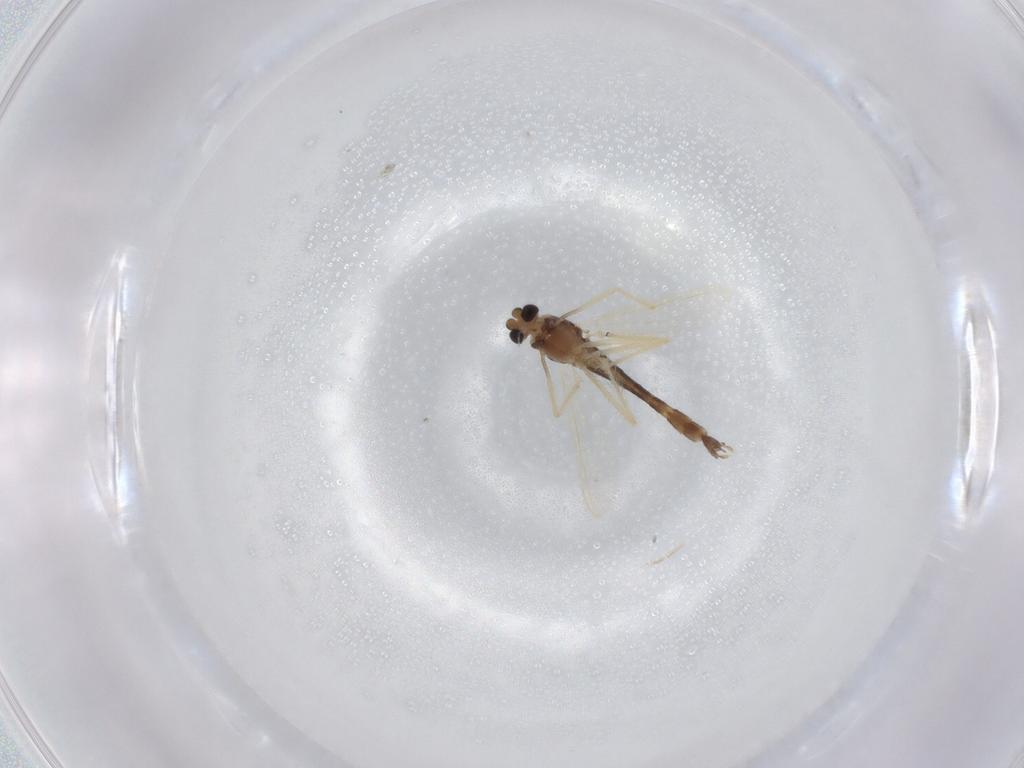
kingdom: Animalia
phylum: Arthropoda
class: Insecta
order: Diptera
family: Chironomidae
